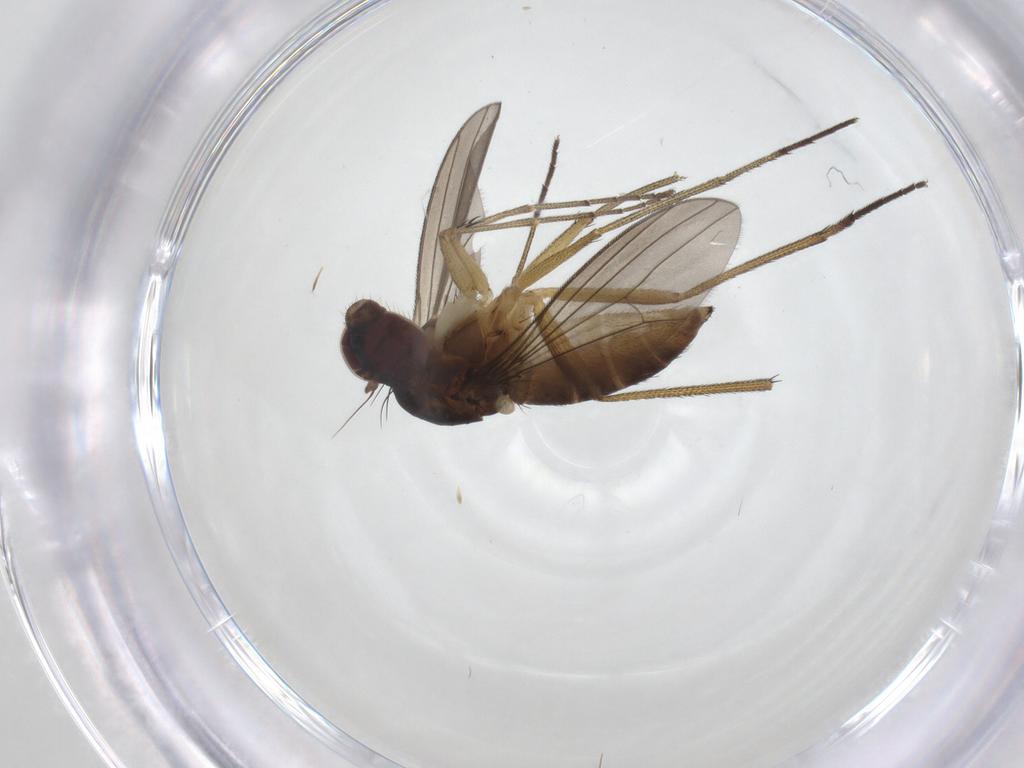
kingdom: Animalia
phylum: Arthropoda
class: Insecta
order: Diptera
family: Dolichopodidae
